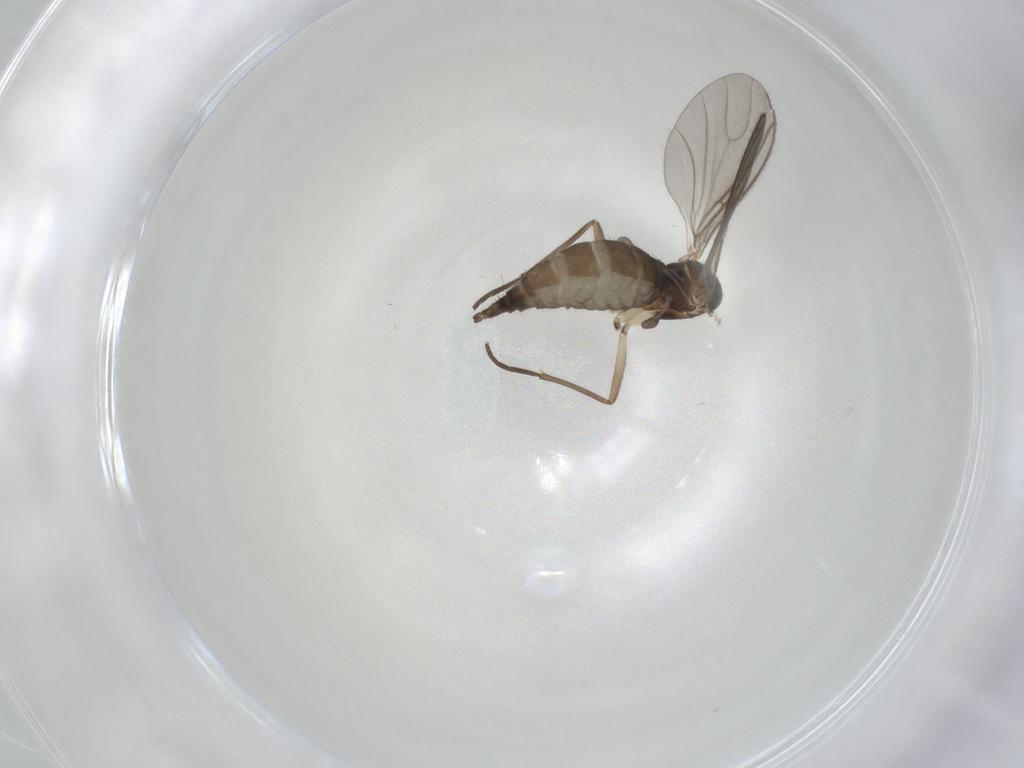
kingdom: Animalia
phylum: Arthropoda
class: Insecta
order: Diptera
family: Sciaridae
